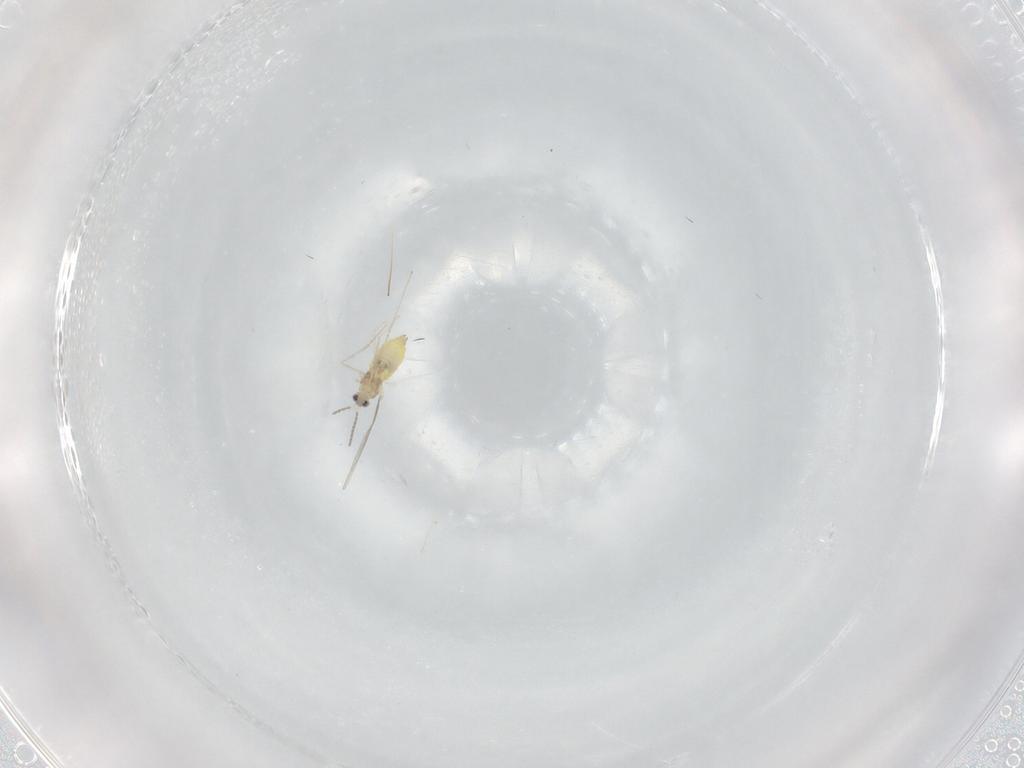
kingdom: Animalia
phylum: Arthropoda
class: Insecta
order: Diptera
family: Cecidomyiidae
